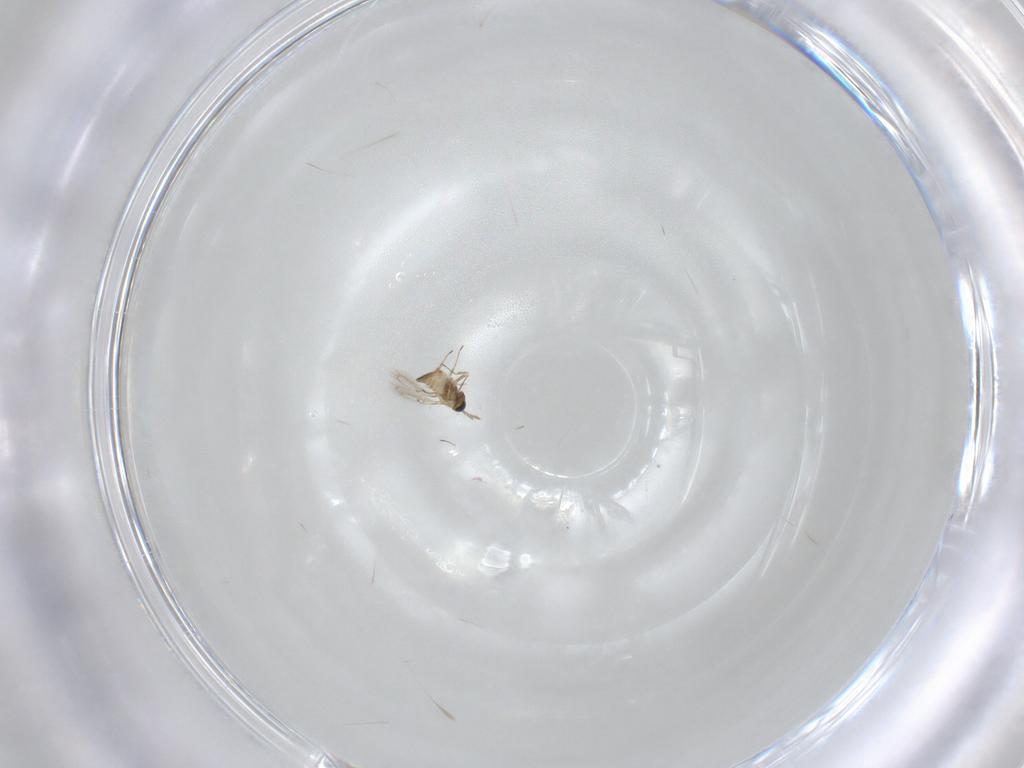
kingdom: Animalia
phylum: Arthropoda
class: Insecta
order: Hymenoptera
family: Trichogrammatidae
